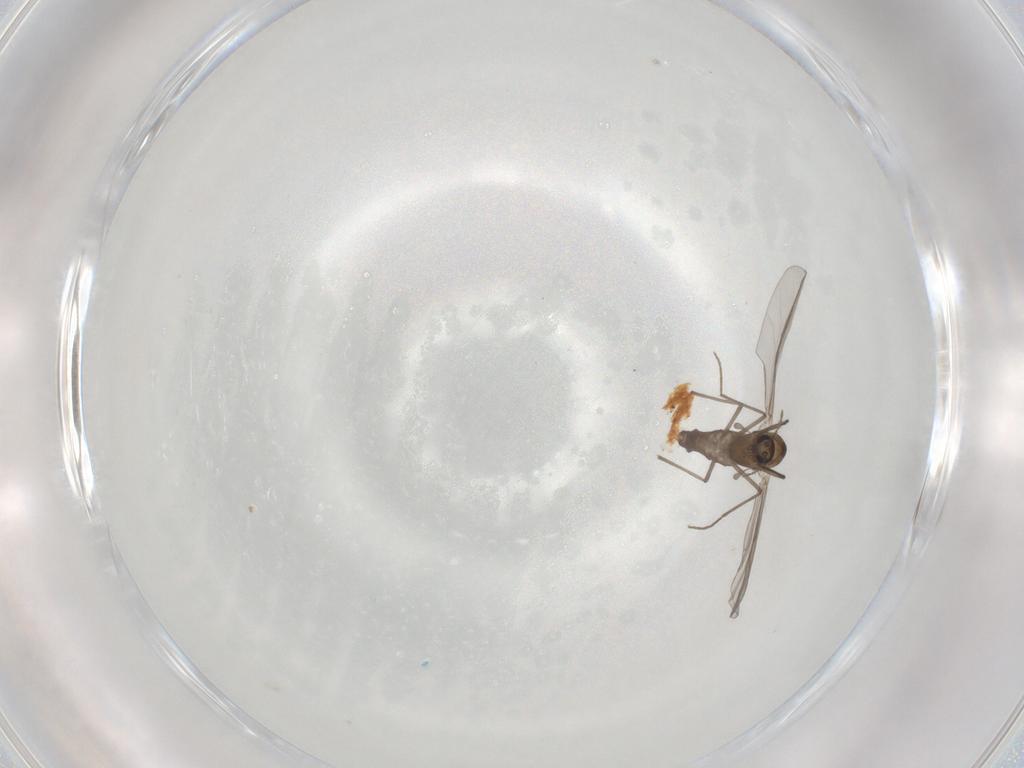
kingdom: Animalia
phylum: Arthropoda
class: Insecta
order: Diptera
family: Chironomidae
